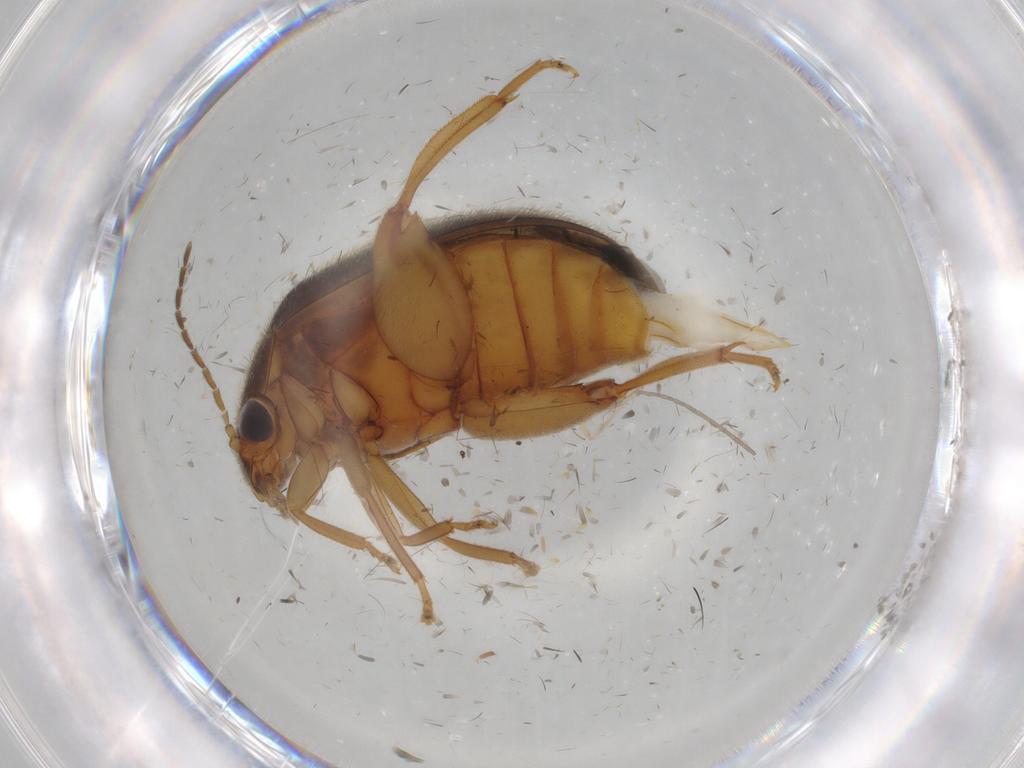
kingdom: Animalia
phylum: Arthropoda
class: Insecta
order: Coleoptera
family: Scirtidae
